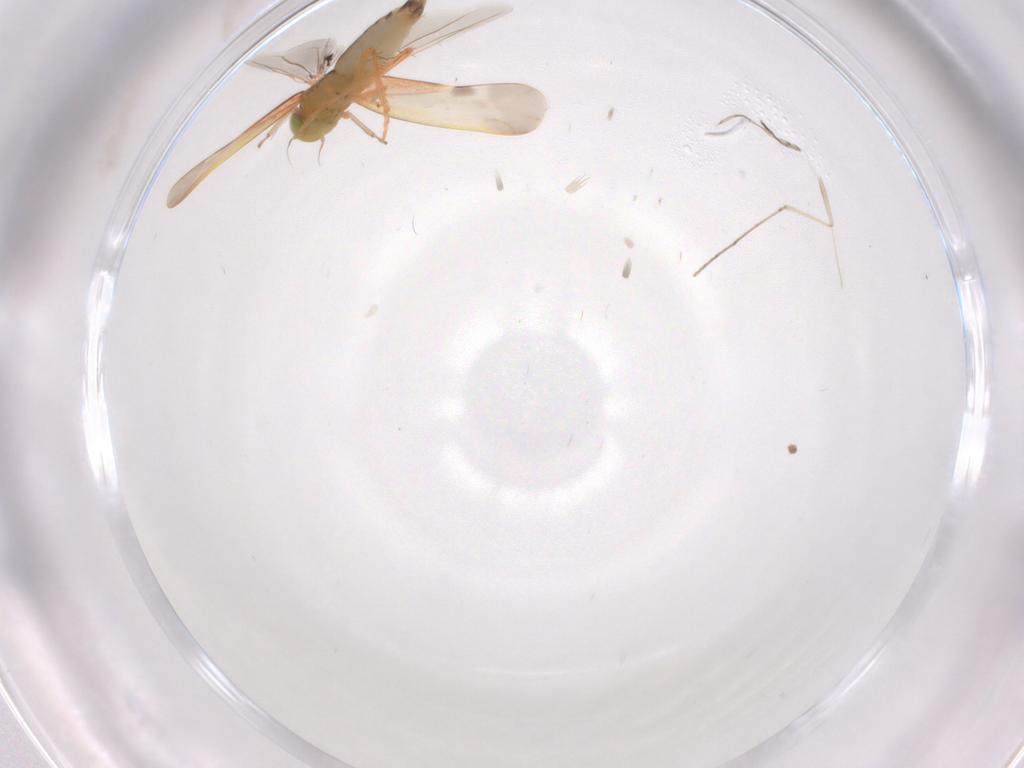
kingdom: Animalia
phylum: Arthropoda
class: Insecta
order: Hemiptera
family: Cicadellidae
